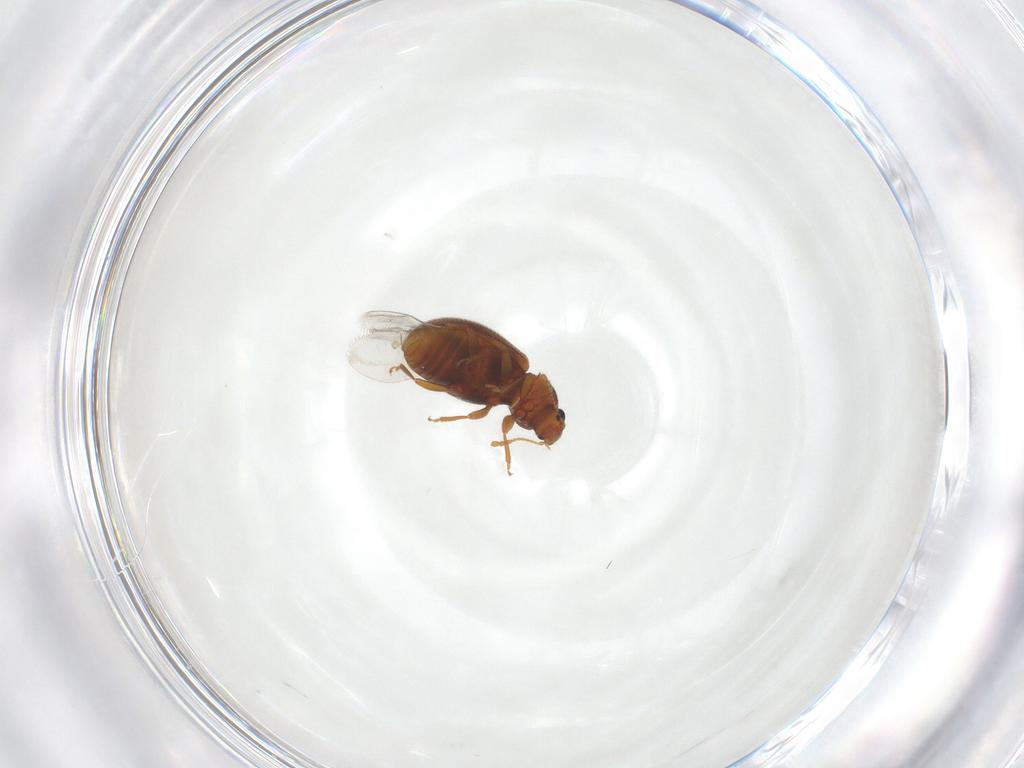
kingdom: Animalia
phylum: Arthropoda
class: Insecta
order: Coleoptera
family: Latridiidae
